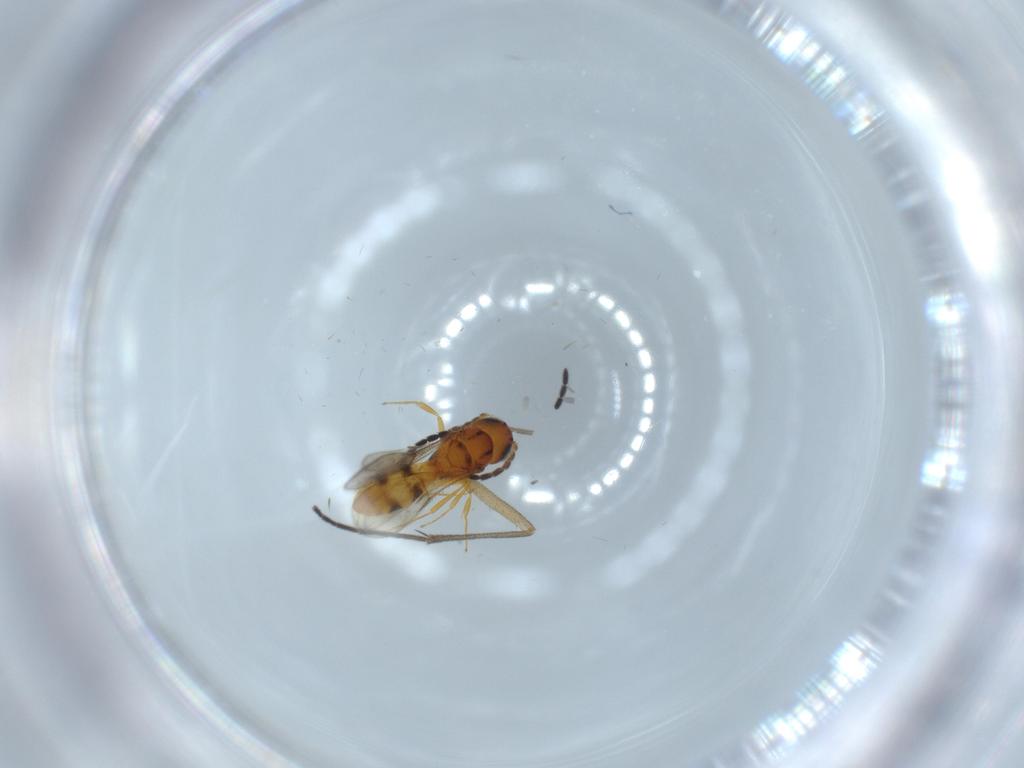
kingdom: Animalia
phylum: Arthropoda
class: Insecta
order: Hymenoptera
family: Scelionidae
